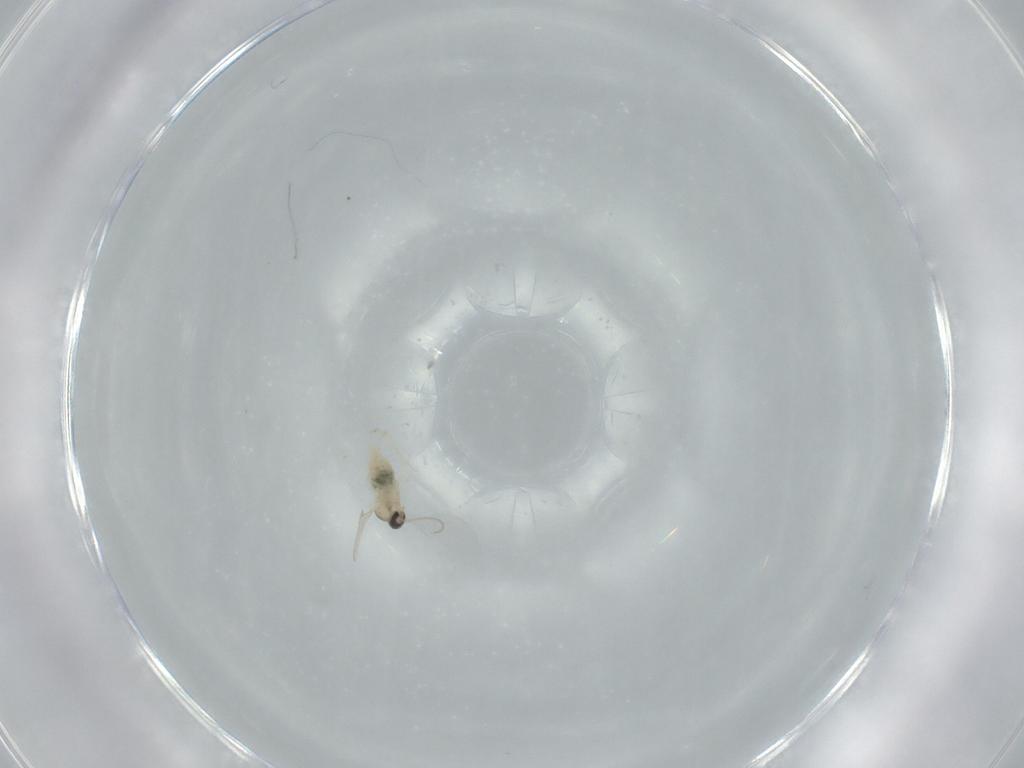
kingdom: Animalia
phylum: Arthropoda
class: Insecta
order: Diptera
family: Cecidomyiidae
